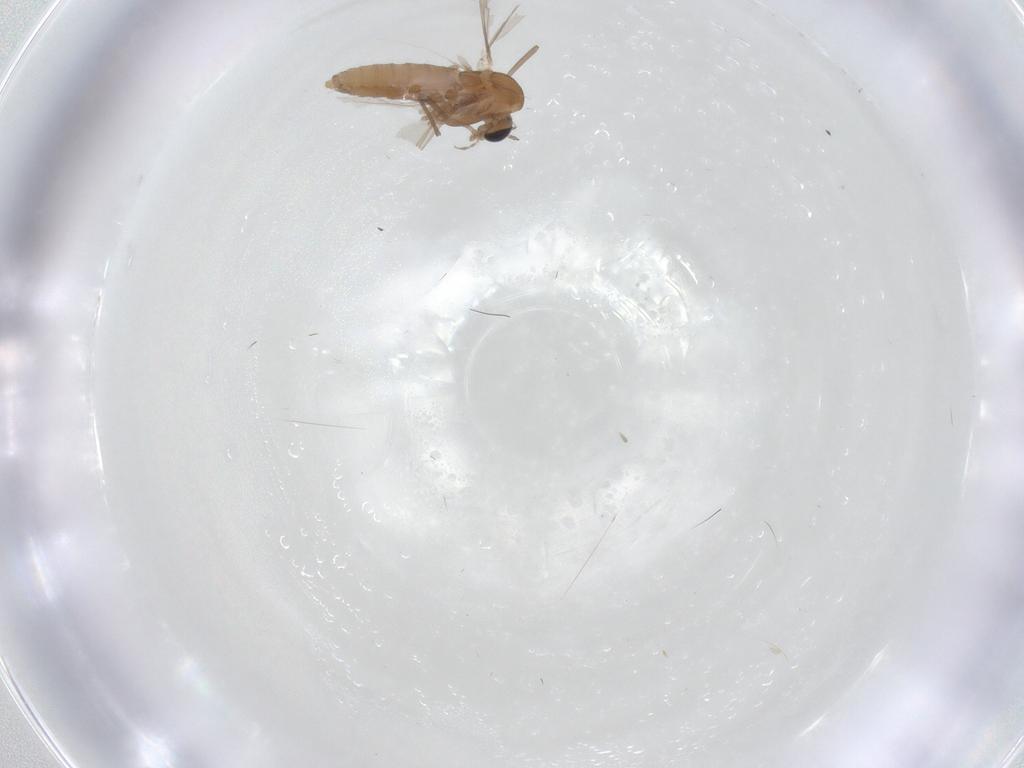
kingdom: Animalia
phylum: Arthropoda
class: Insecta
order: Diptera
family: Chironomidae
